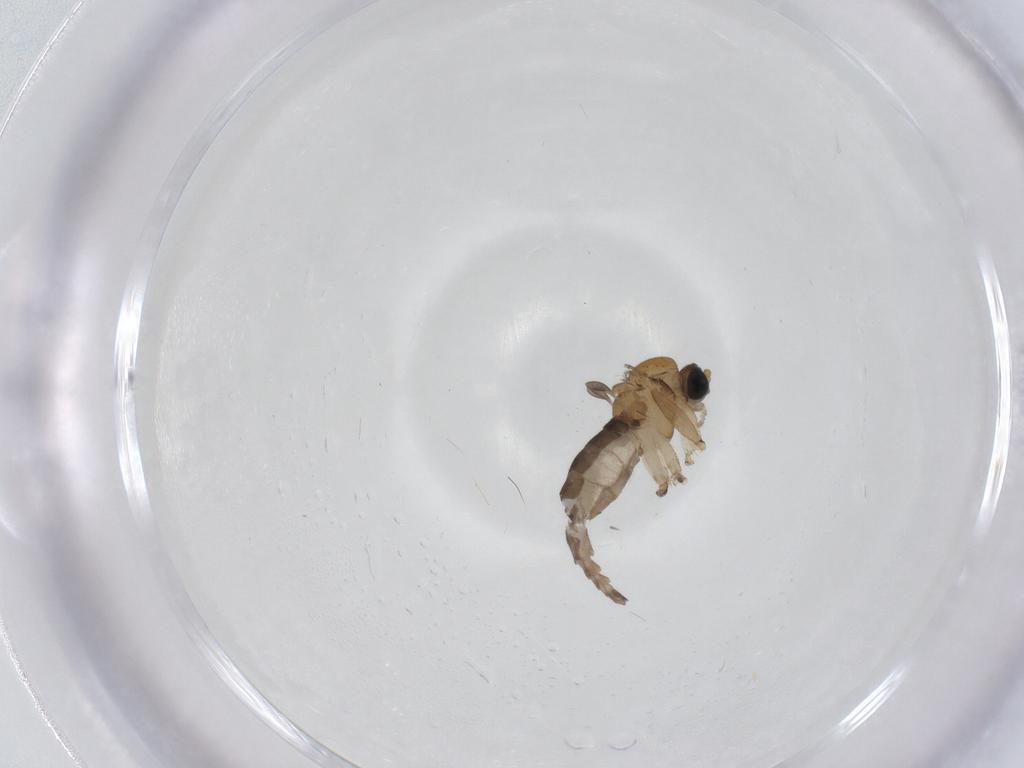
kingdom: Animalia
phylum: Arthropoda
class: Insecta
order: Diptera
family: Sciaridae
